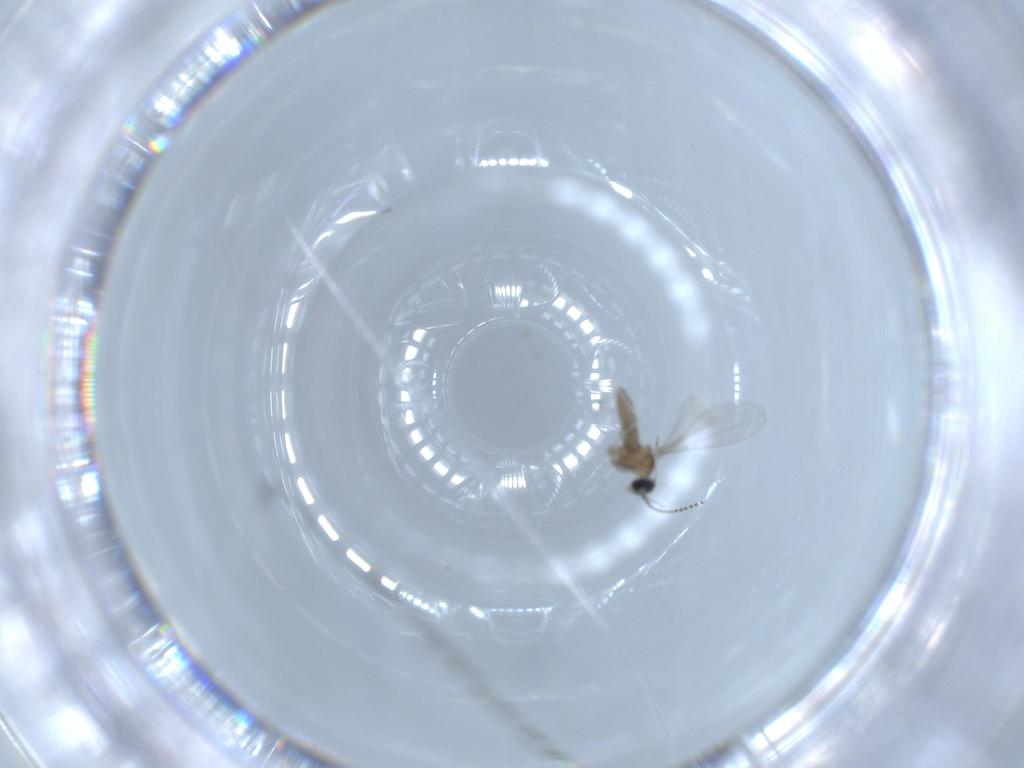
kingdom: Animalia
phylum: Arthropoda
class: Insecta
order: Diptera
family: Cecidomyiidae
